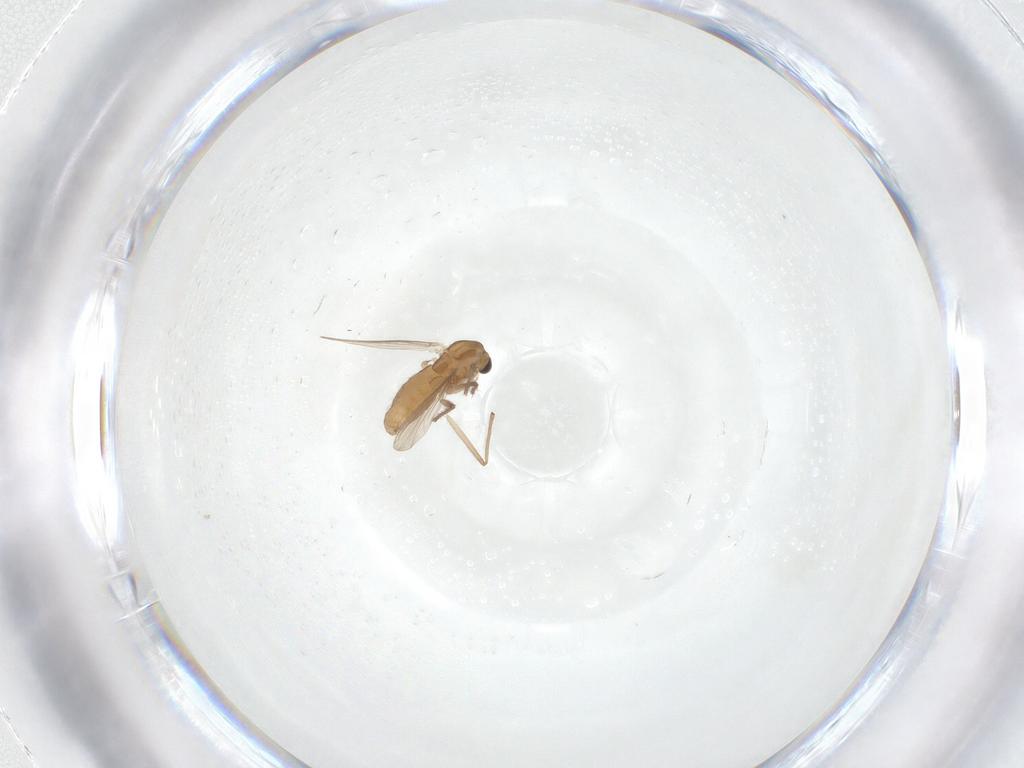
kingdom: Animalia
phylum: Arthropoda
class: Insecta
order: Diptera
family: Chironomidae
